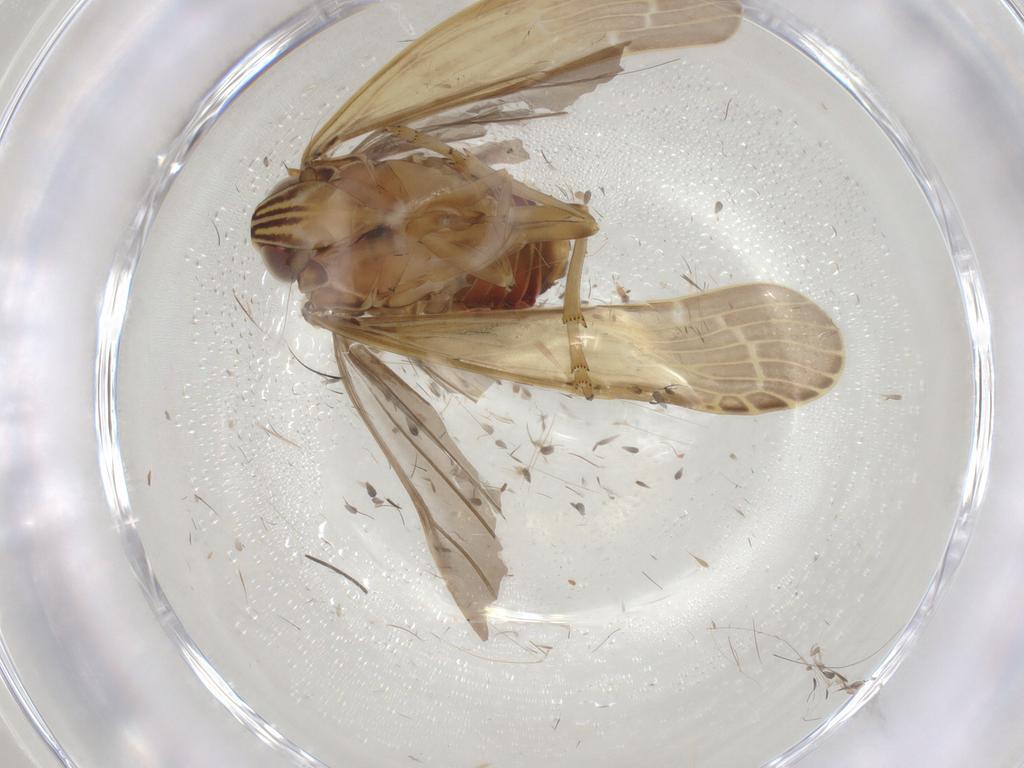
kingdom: Animalia
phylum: Arthropoda
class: Insecta
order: Hemiptera
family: Achilidae
